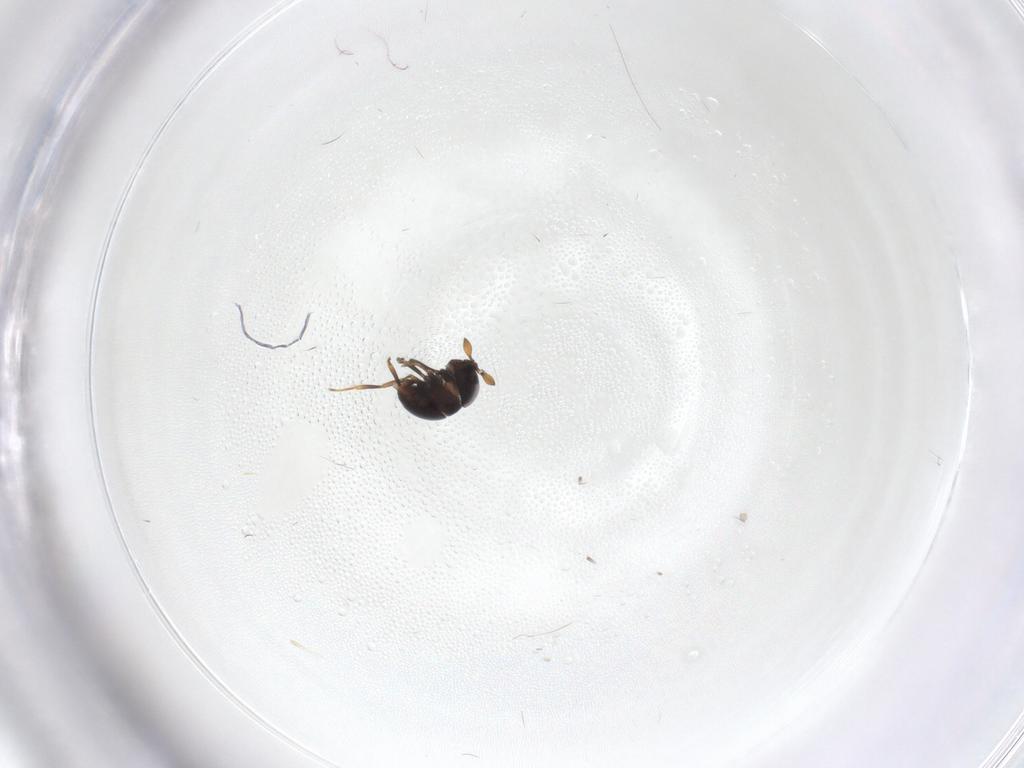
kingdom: Animalia
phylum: Arthropoda
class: Insecta
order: Hymenoptera
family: Scelionidae
